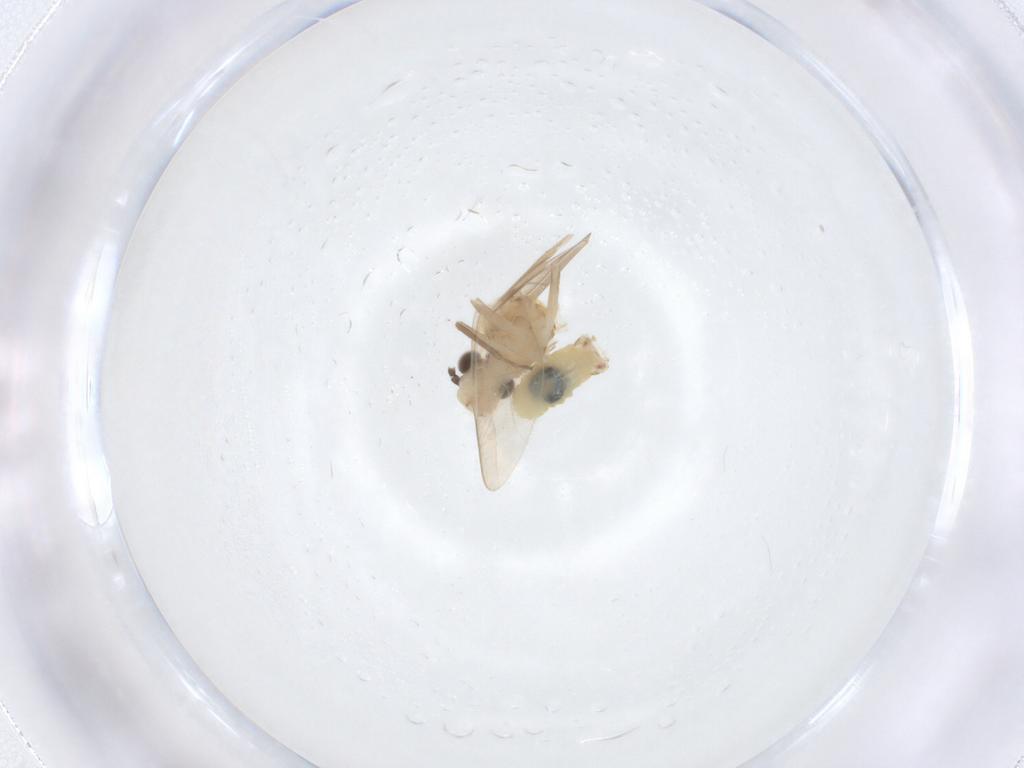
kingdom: Animalia
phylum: Arthropoda
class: Insecta
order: Psocodea
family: Caeciliusidae
